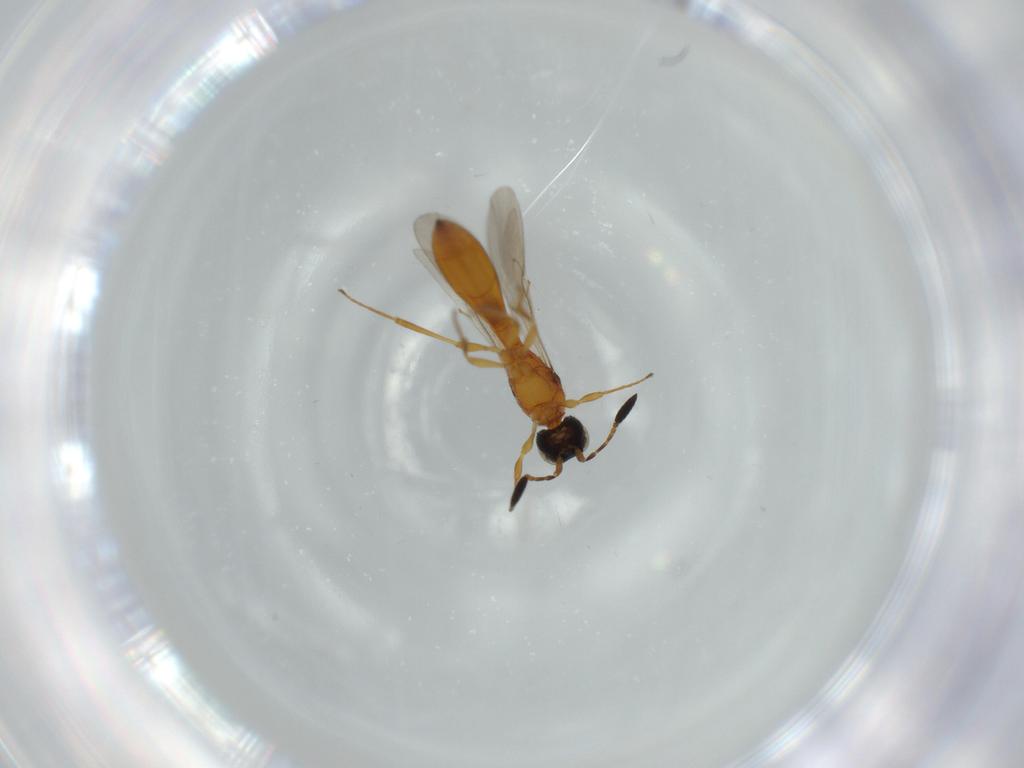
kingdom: Animalia
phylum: Arthropoda
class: Insecta
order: Hymenoptera
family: Scelionidae
